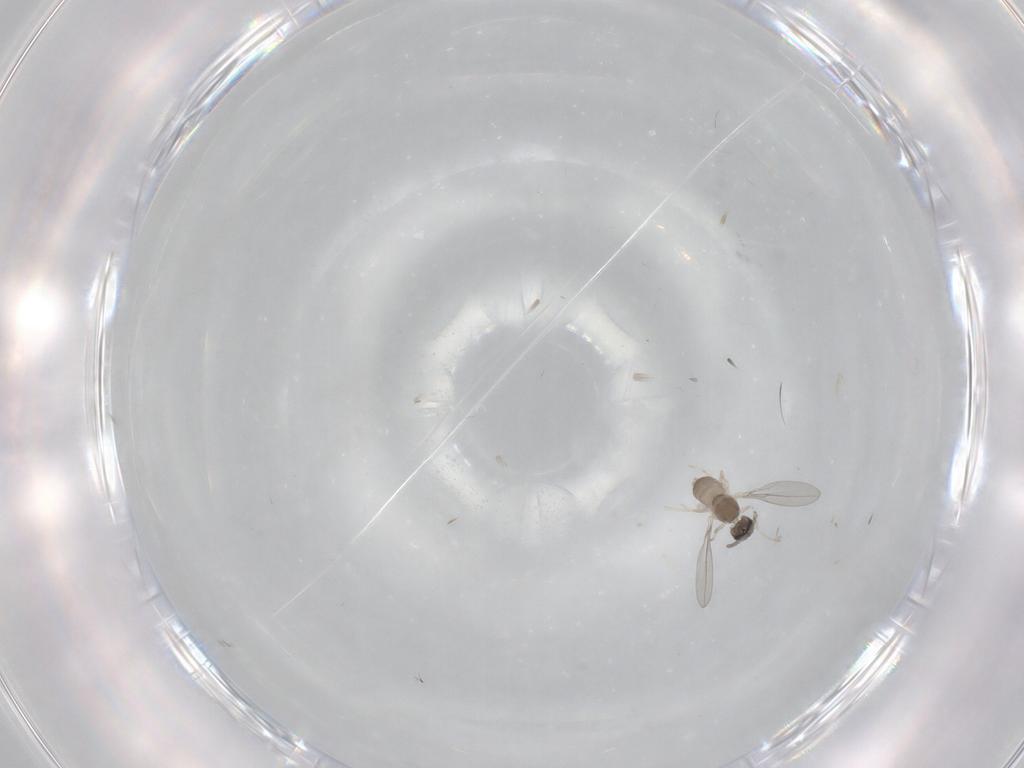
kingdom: Animalia
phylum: Arthropoda
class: Insecta
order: Diptera
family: Cecidomyiidae
